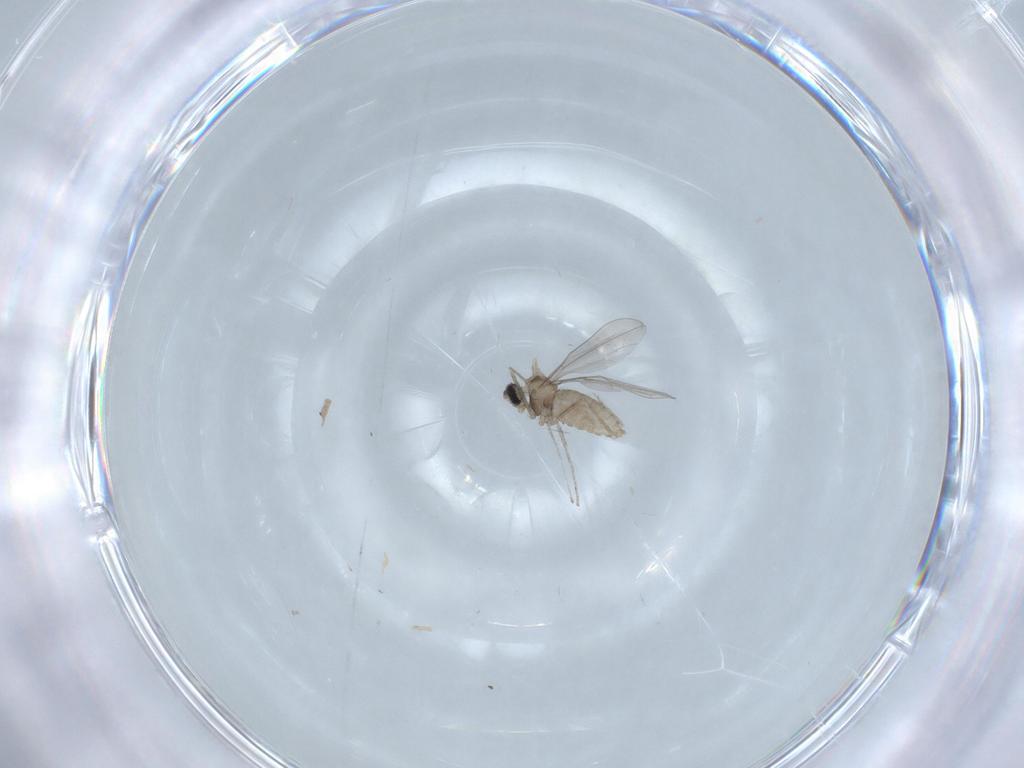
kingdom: Animalia
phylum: Arthropoda
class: Insecta
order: Diptera
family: Cecidomyiidae
